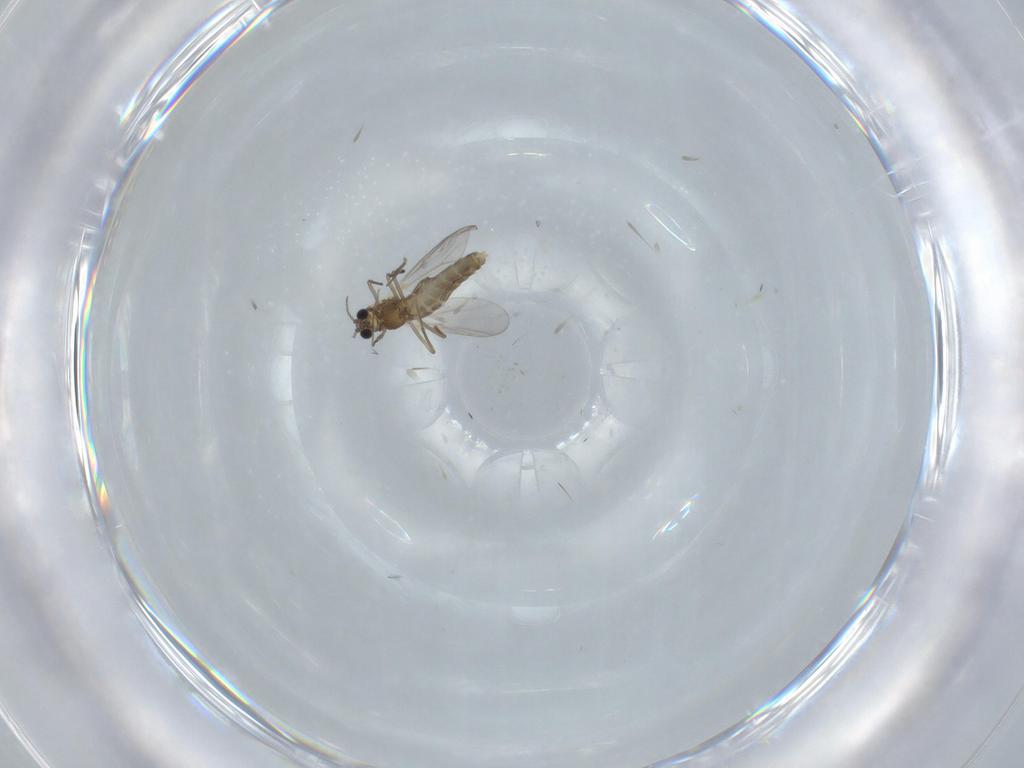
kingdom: Animalia
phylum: Arthropoda
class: Insecta
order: Diptera
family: Chironomidae
